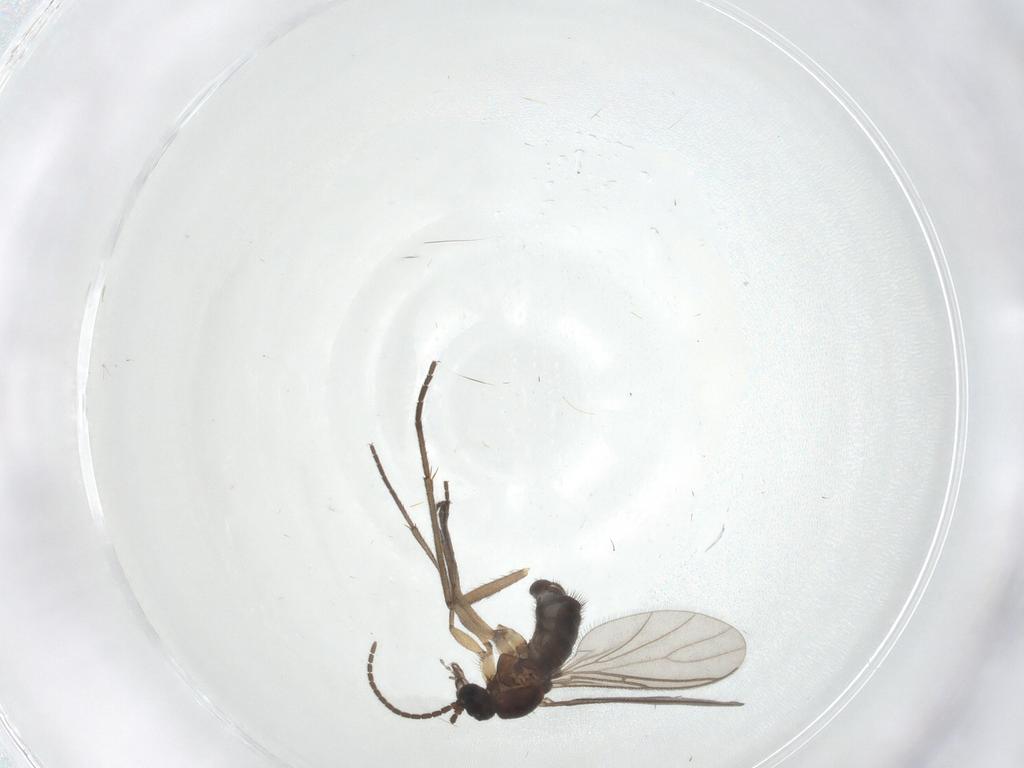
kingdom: Animalia
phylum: Arthropoda
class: Insecta
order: Diptera
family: Sciaridae
